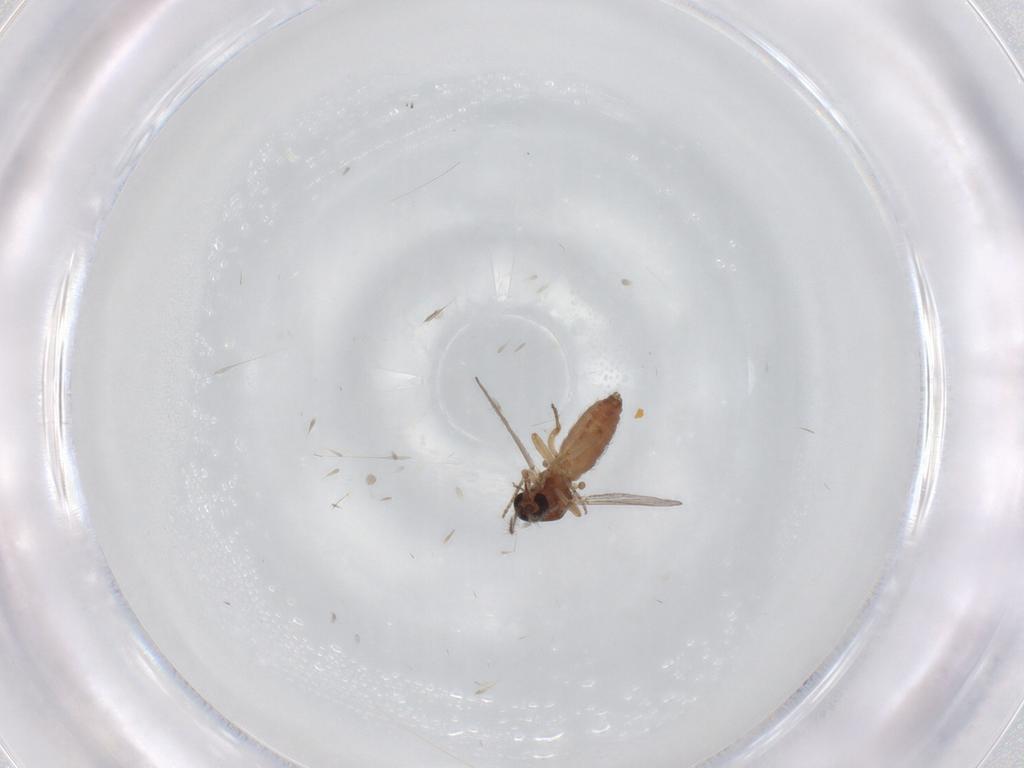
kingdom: Animalia
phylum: Arthropoda
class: Insecta
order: Diptera
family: Ceratopogonidae
